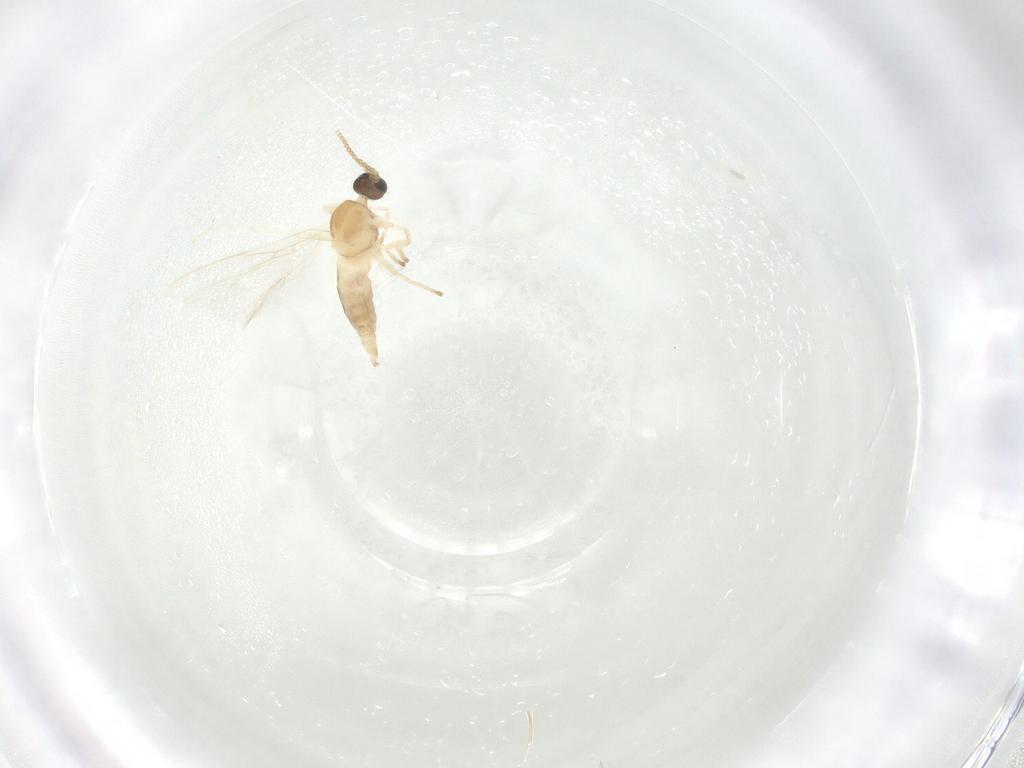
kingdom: Animalia
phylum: Arthropoda
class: Insecta
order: Diptera
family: Cecidomyiidae
